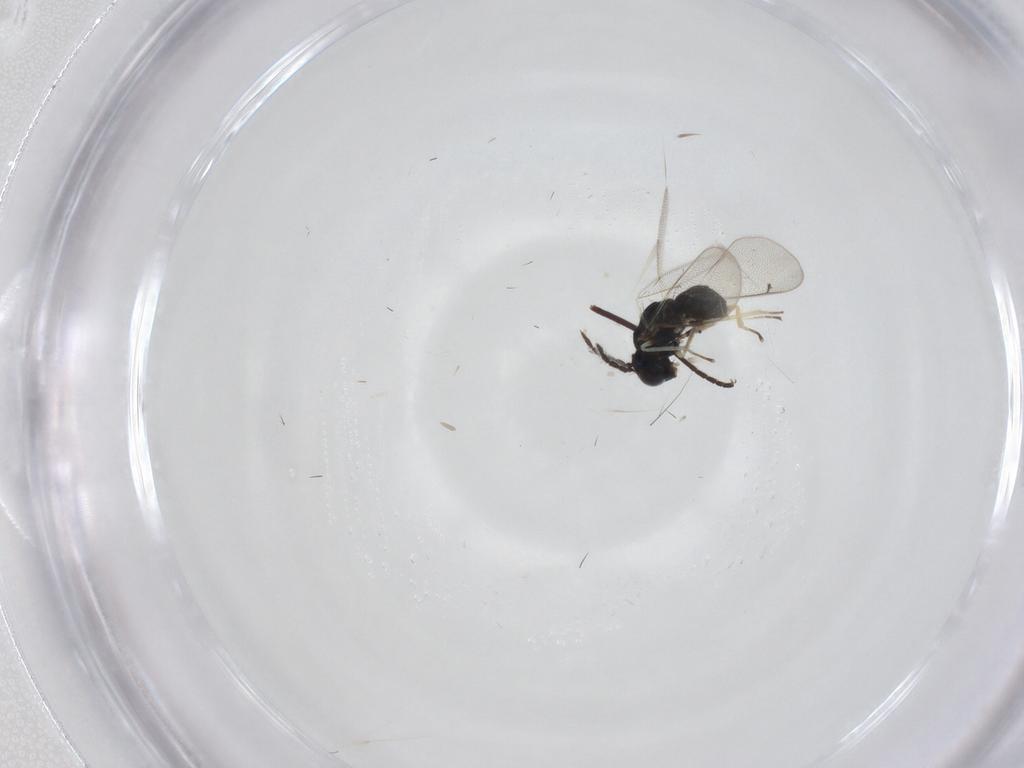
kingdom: Animalia
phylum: Arthropoda
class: Insecta
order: Hymenoptera
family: Eulophidae
